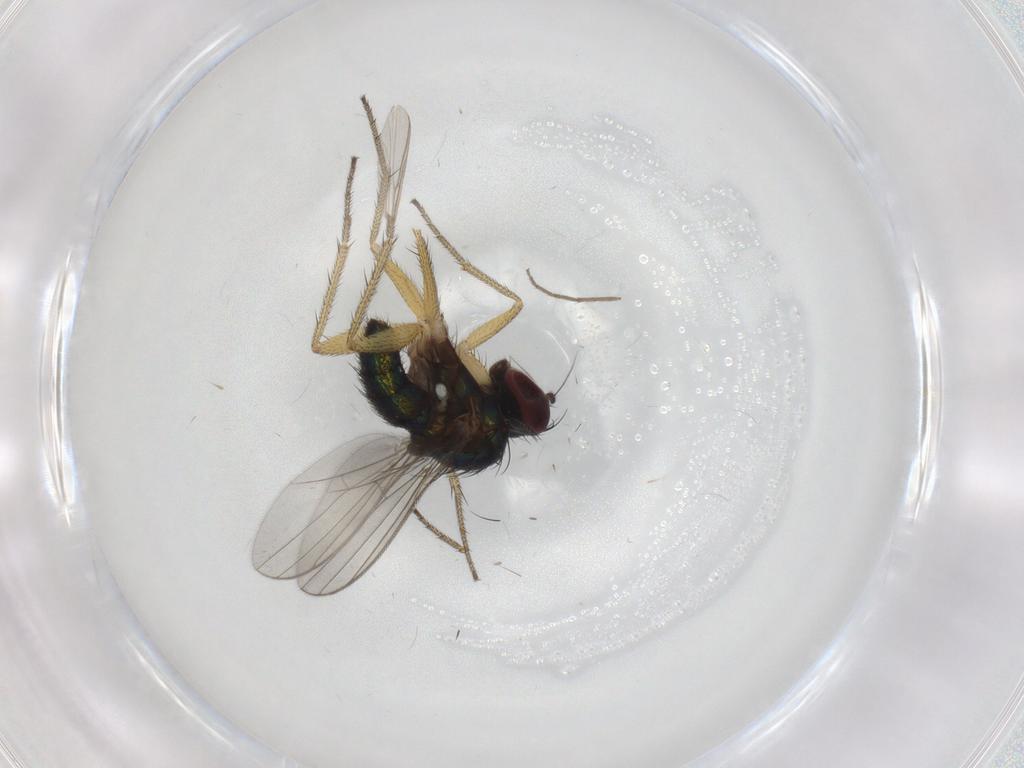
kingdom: Animalia
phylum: Arthropoda
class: Insecta
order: Diptera
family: Chironomidae
